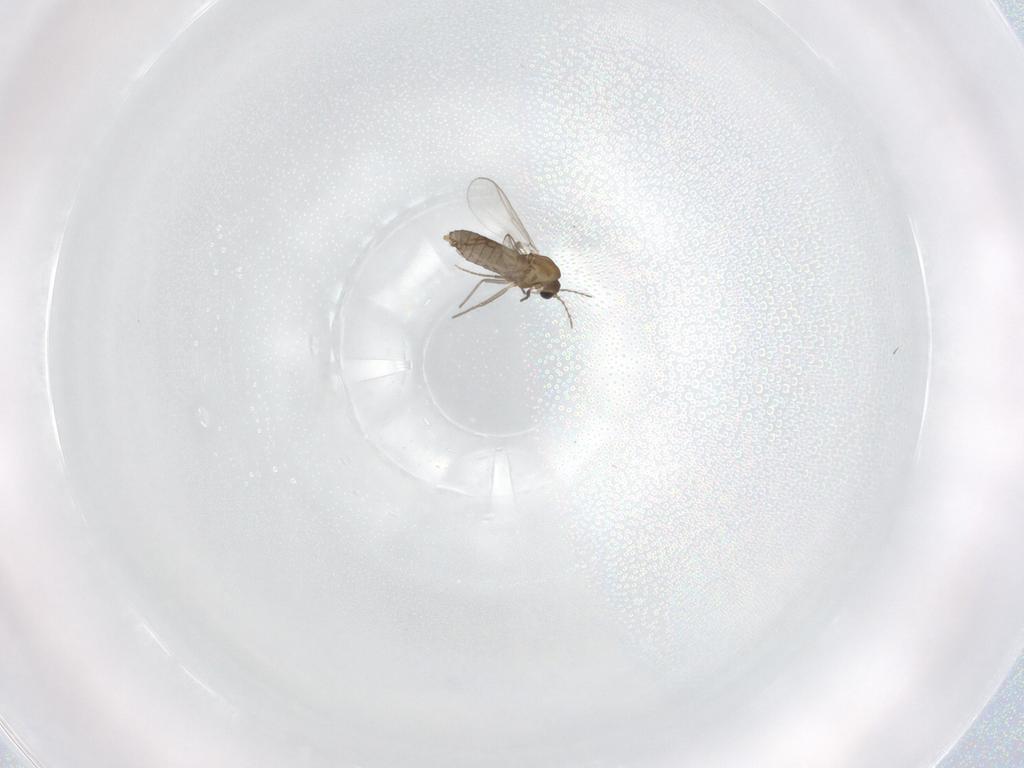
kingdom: Animalia
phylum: Arthropoda
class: Insecta
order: Diptera
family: Chironomidae
